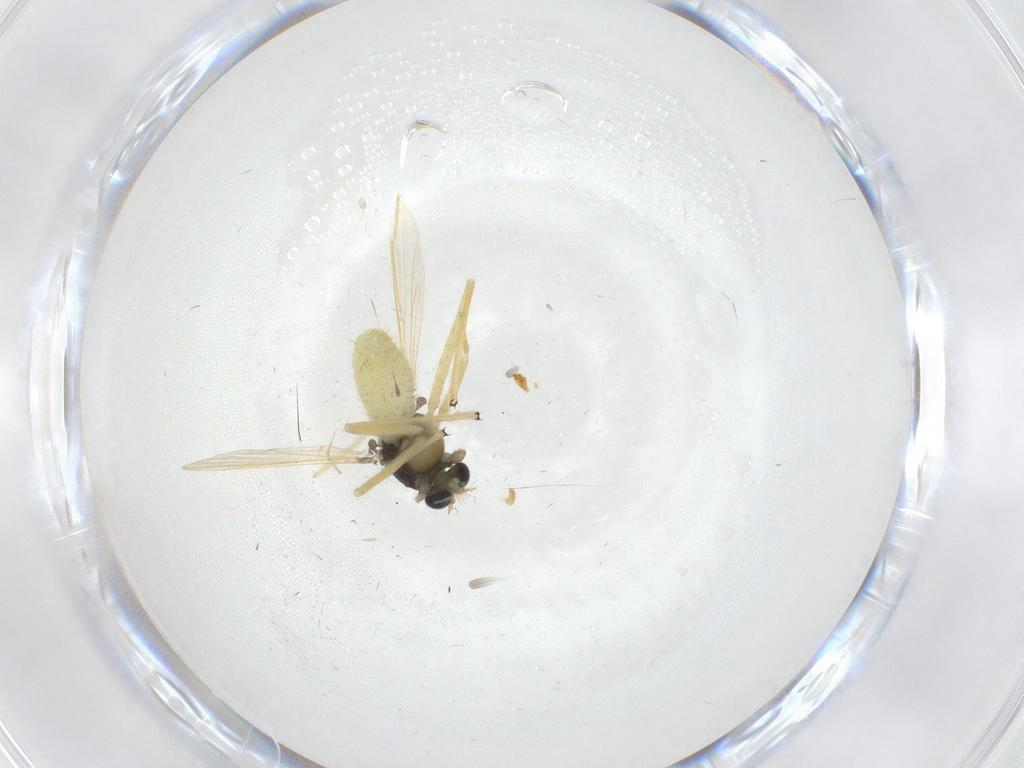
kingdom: Animalia
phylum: Arthropoda
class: Insecta
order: Diptera
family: Chironomidae
